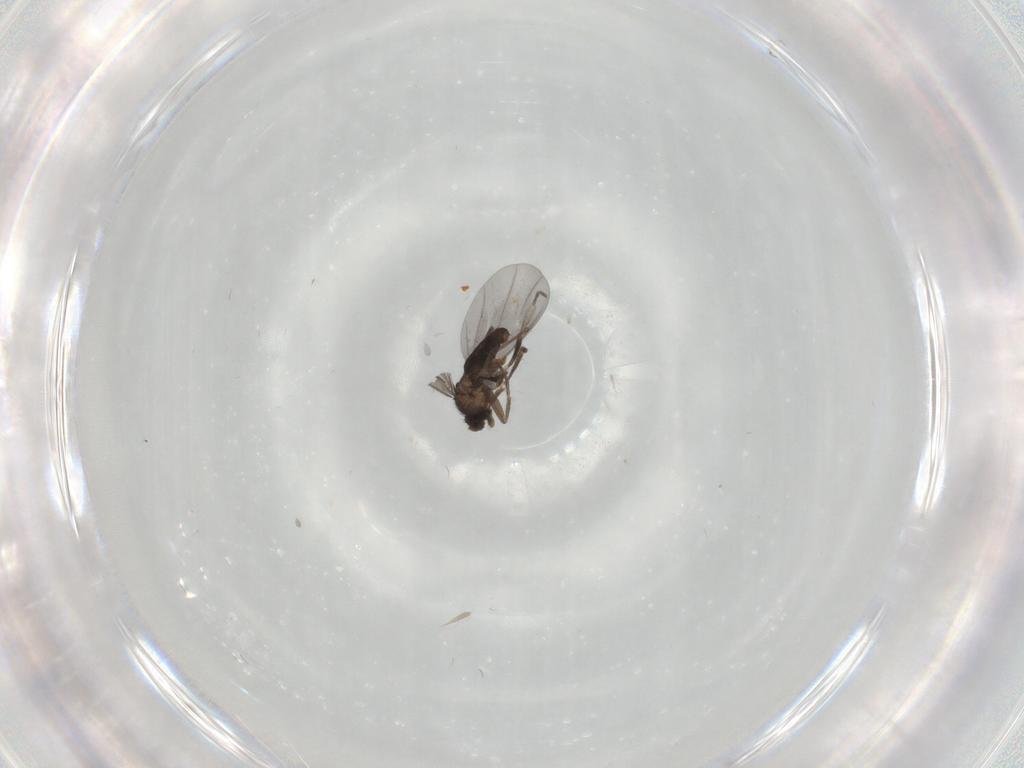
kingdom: Animalia
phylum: Arthropoda
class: Insecta
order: Diptera
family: Phoridae
